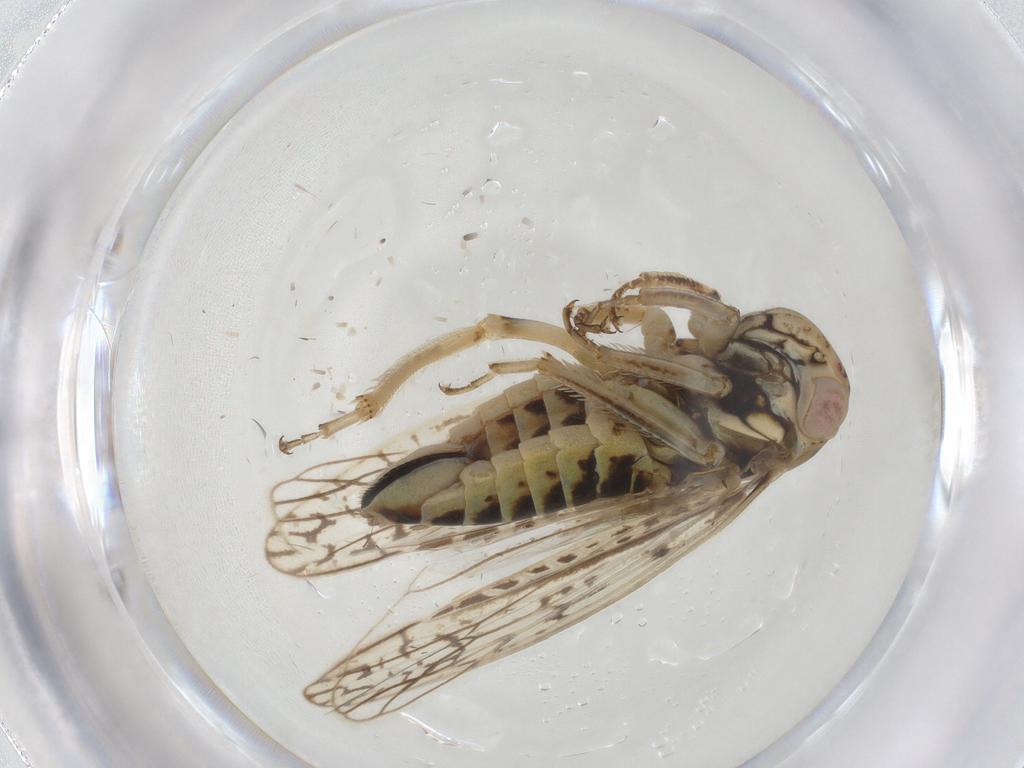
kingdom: Animalia
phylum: Arthropoda
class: Insecta
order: Hemiptera
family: Cicadellidae
